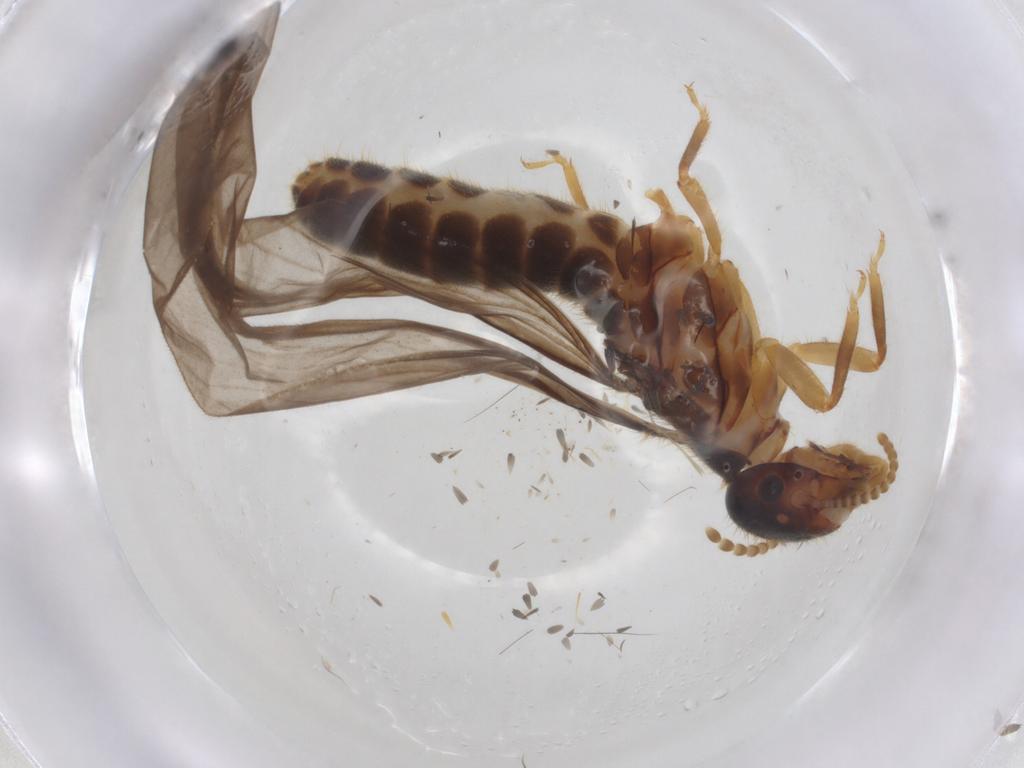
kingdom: Animalia
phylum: Arthropoda
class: Insecta
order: Blattodea
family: Termitidae
